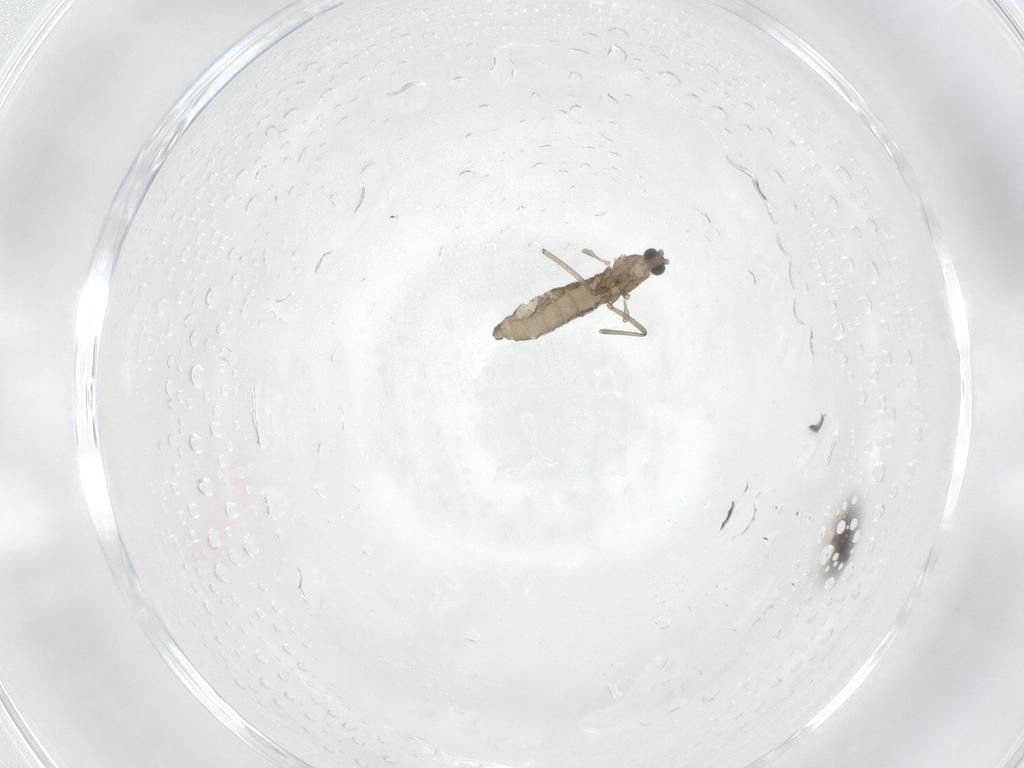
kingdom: Animalia
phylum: Arthropoda
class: Insecta
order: Diptera
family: Cecidomyiidae
